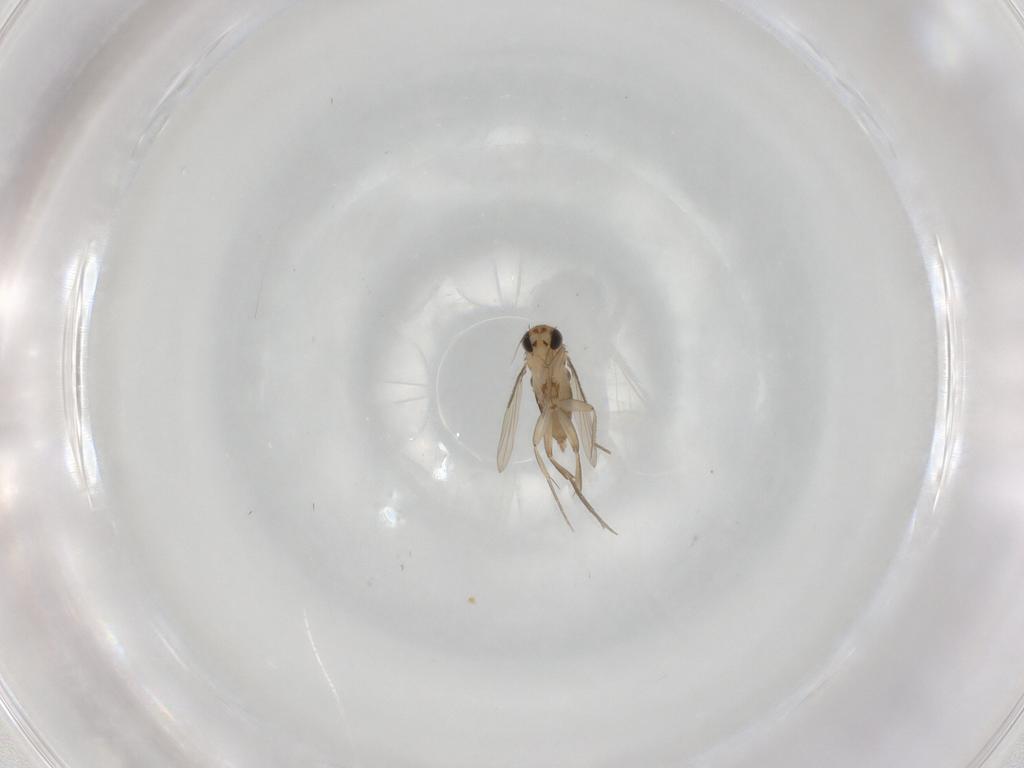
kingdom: Animalia
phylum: Arthropoda
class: Insecta
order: Diptera
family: Phoridae
